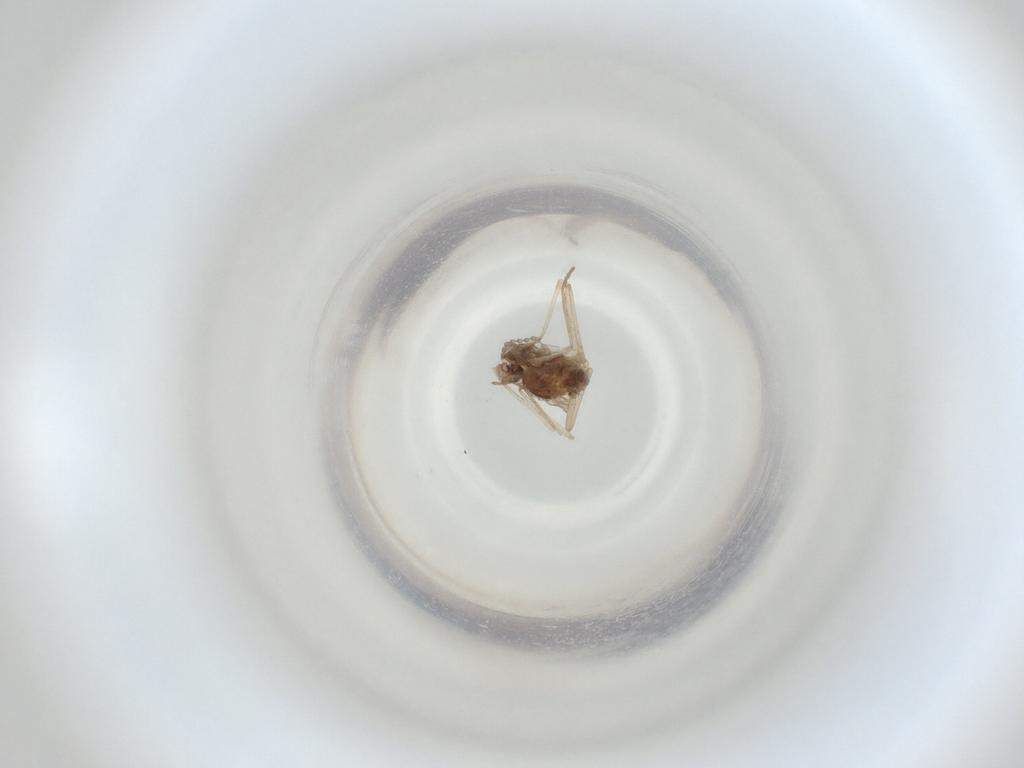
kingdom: Animalia
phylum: Arthropoda
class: Insecta
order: Diptera
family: Cecidomyiidae
